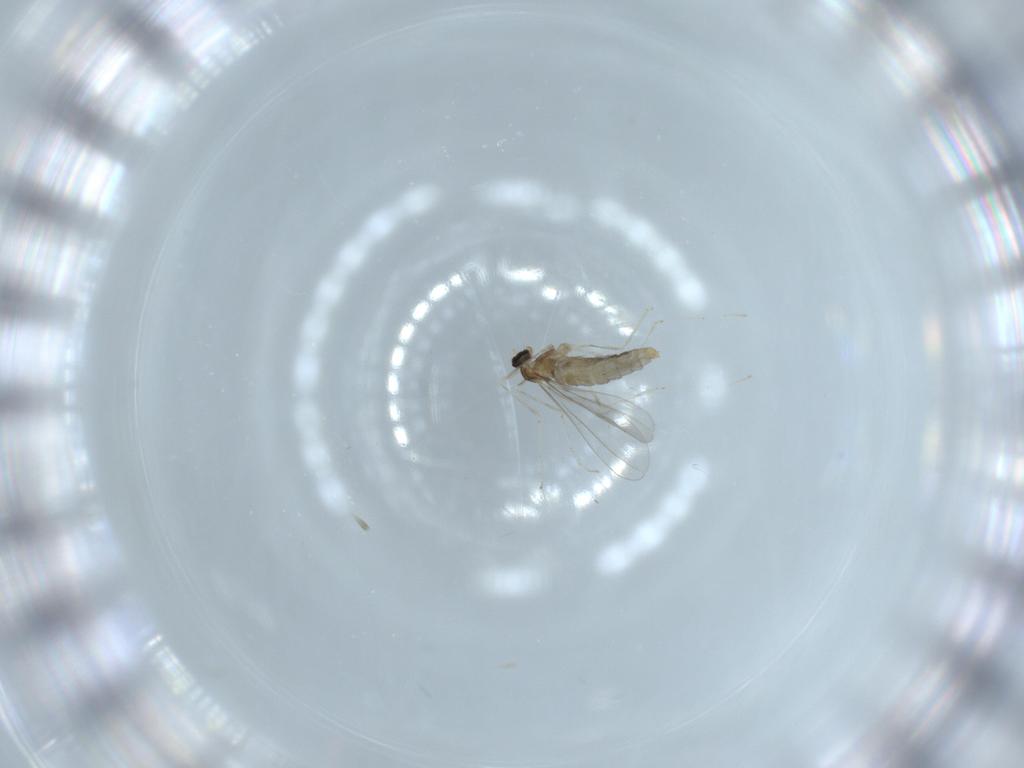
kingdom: Animalia
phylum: Arthropoda
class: Insecta
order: Diptera
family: Cecidomyiidae
